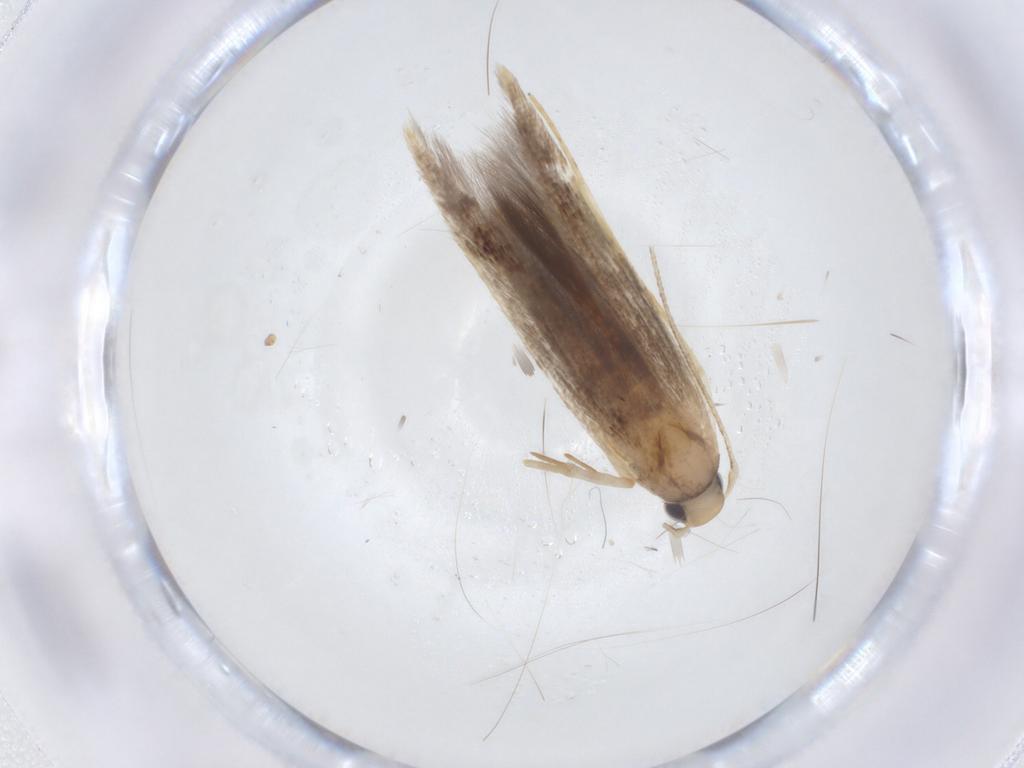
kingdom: Animalia
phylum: Arthropoda
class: Insecta
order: Lepidoptera
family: Cosmopterigidae
